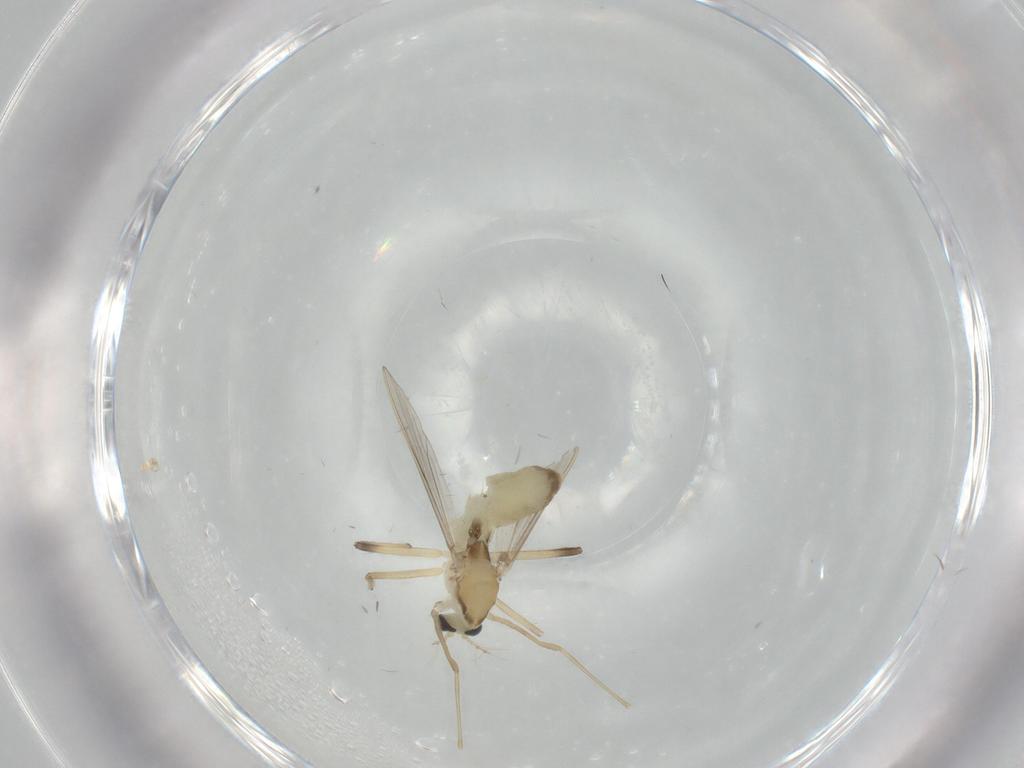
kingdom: Animalia
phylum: Arthropoda
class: Insecta
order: Diptera
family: Chironomidae
